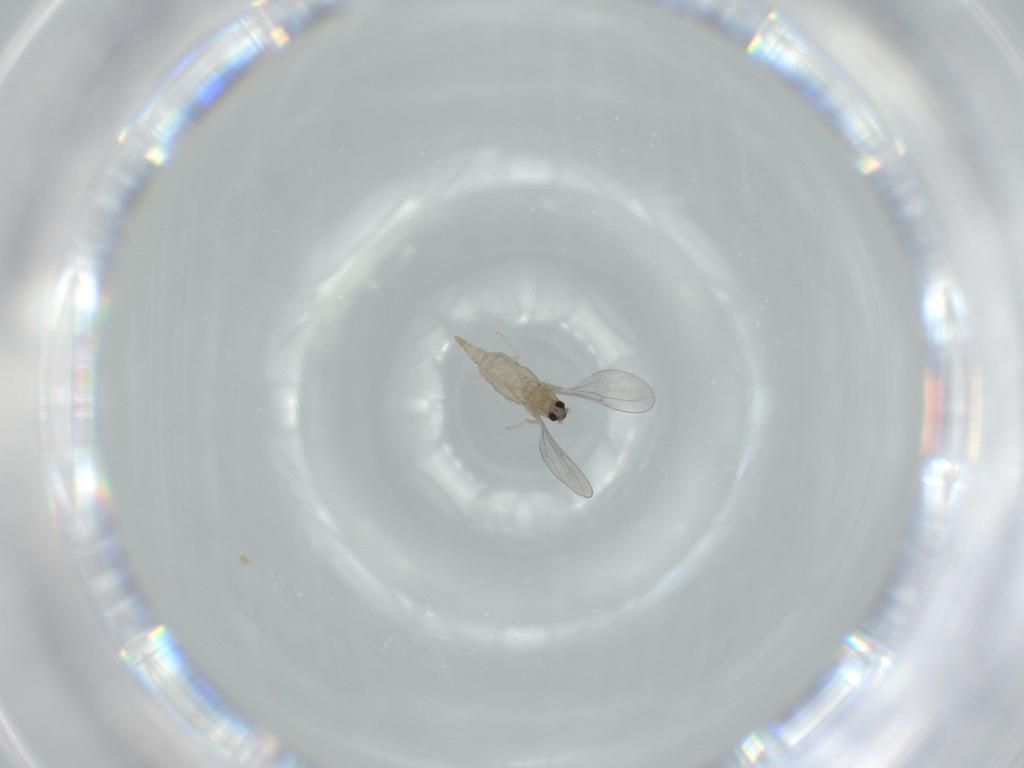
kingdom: Animalia
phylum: Arthropoda
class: Insecta
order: Diptera
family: Cecidomyiidae
